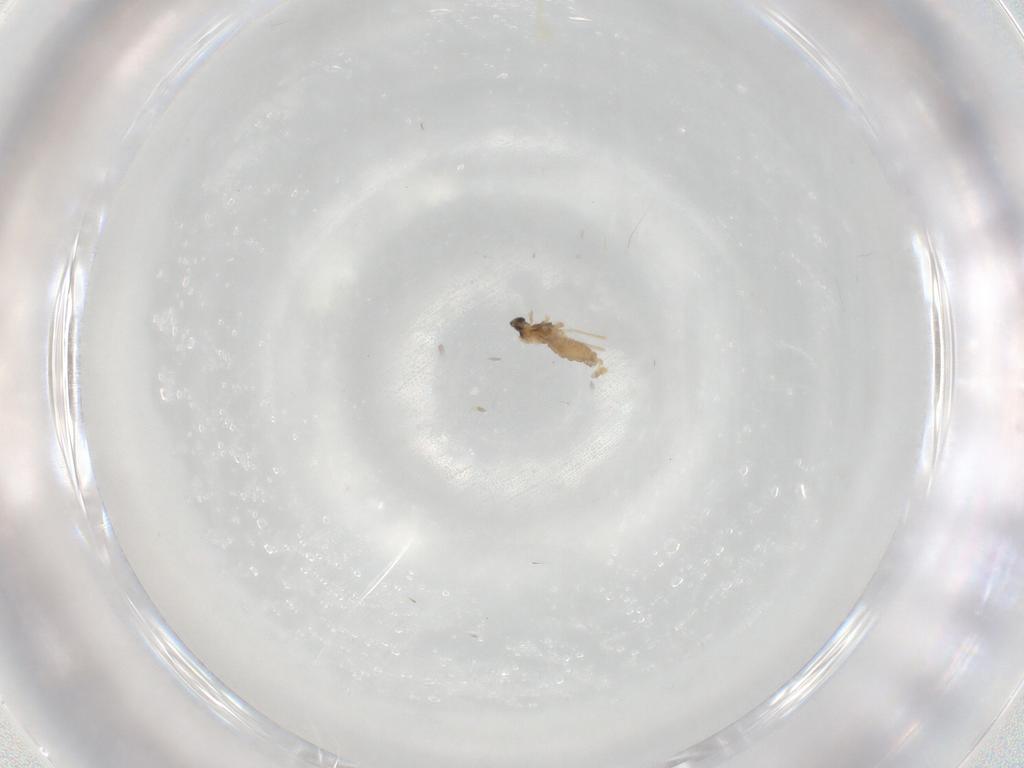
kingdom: Animalia
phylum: Arthropoda
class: Insecta
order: Diptera
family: Cecidomyiidae
